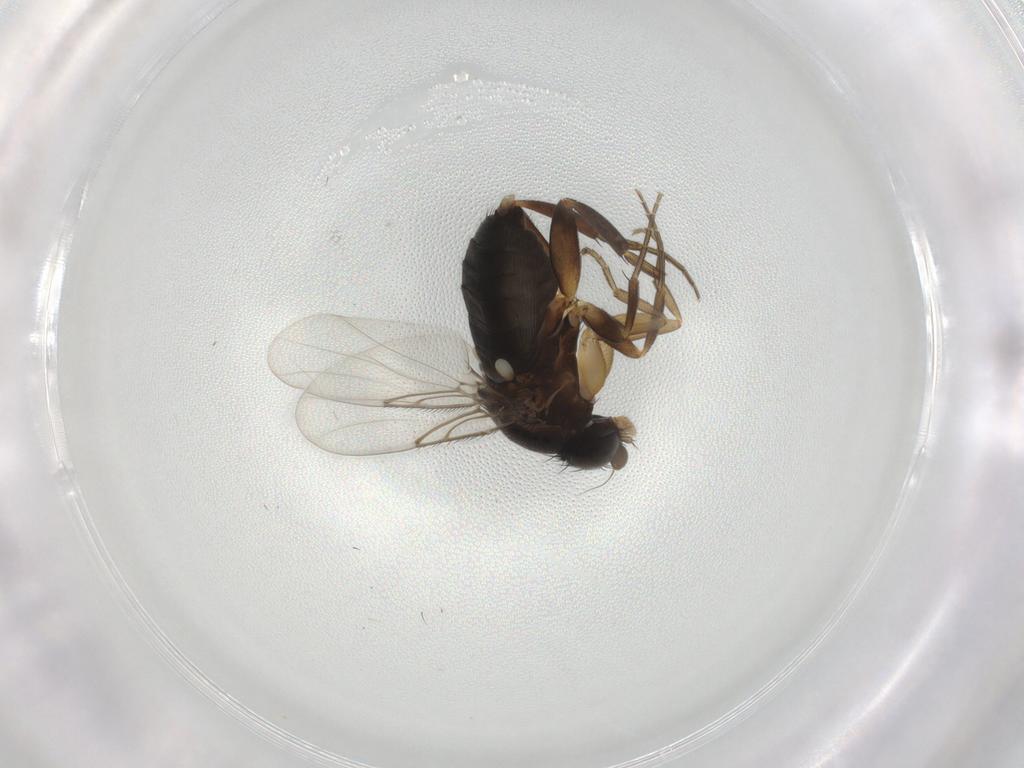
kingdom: Animalia
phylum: Arthropoda
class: Insecta
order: Diptera
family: Phoridae
